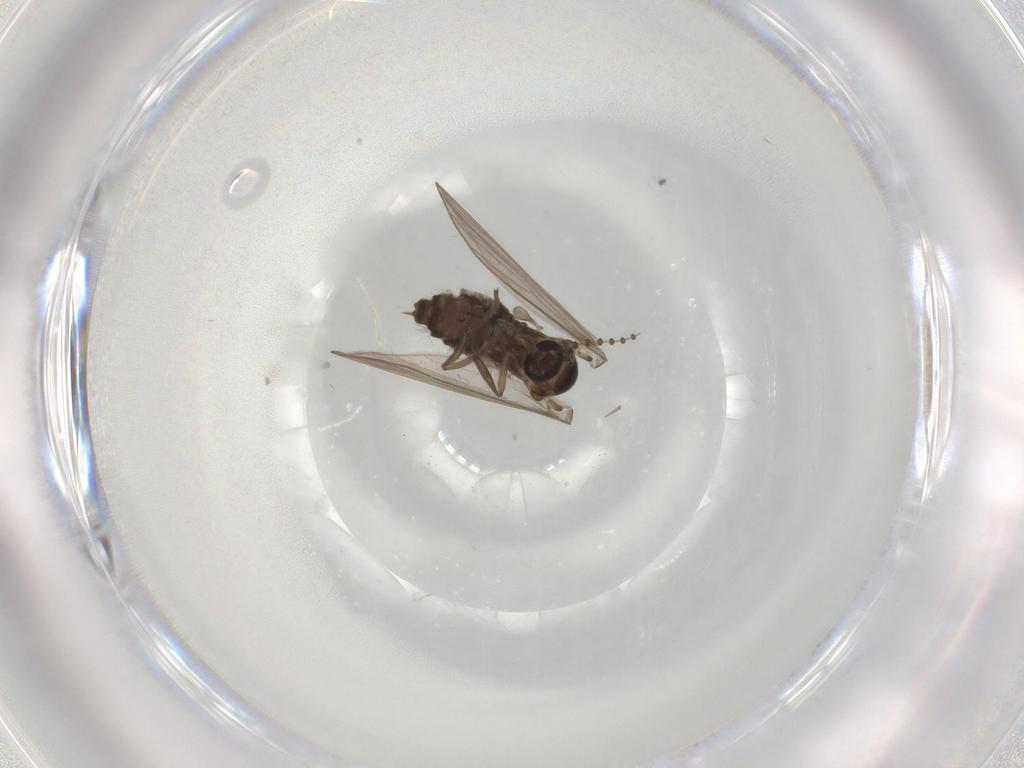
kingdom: Animalia
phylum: Arthropoda
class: Insecta
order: Diptera
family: Psychodidae
